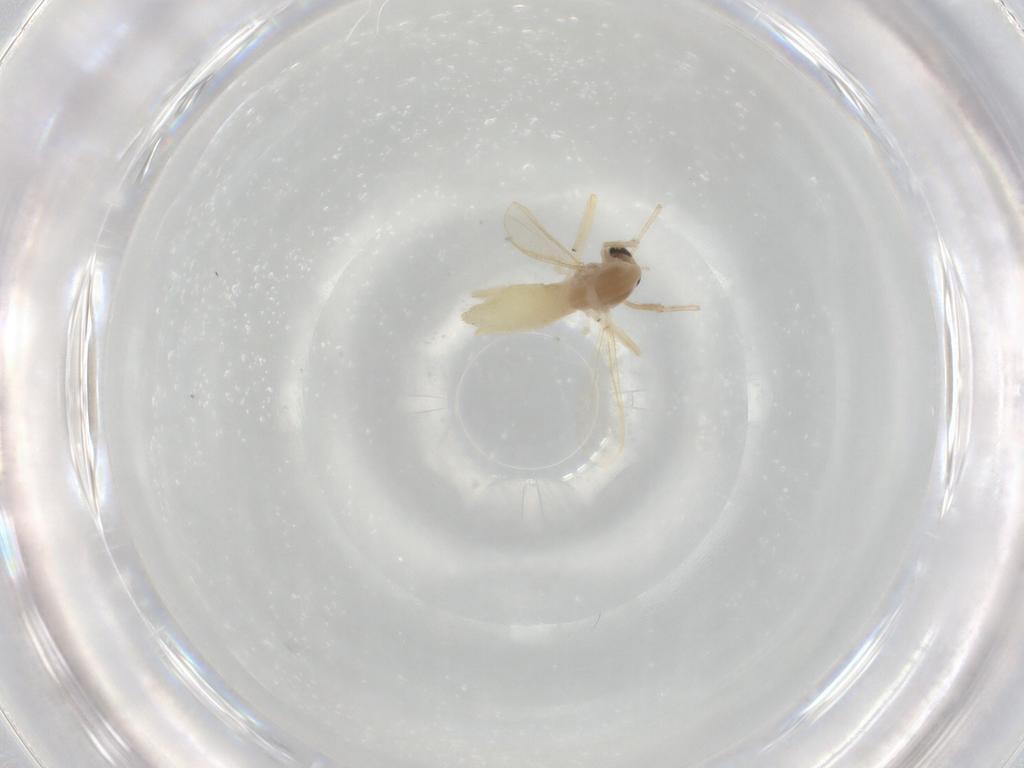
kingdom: Animalia
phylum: Arthropoda
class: Insecta
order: Diptera
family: Chironomidae
